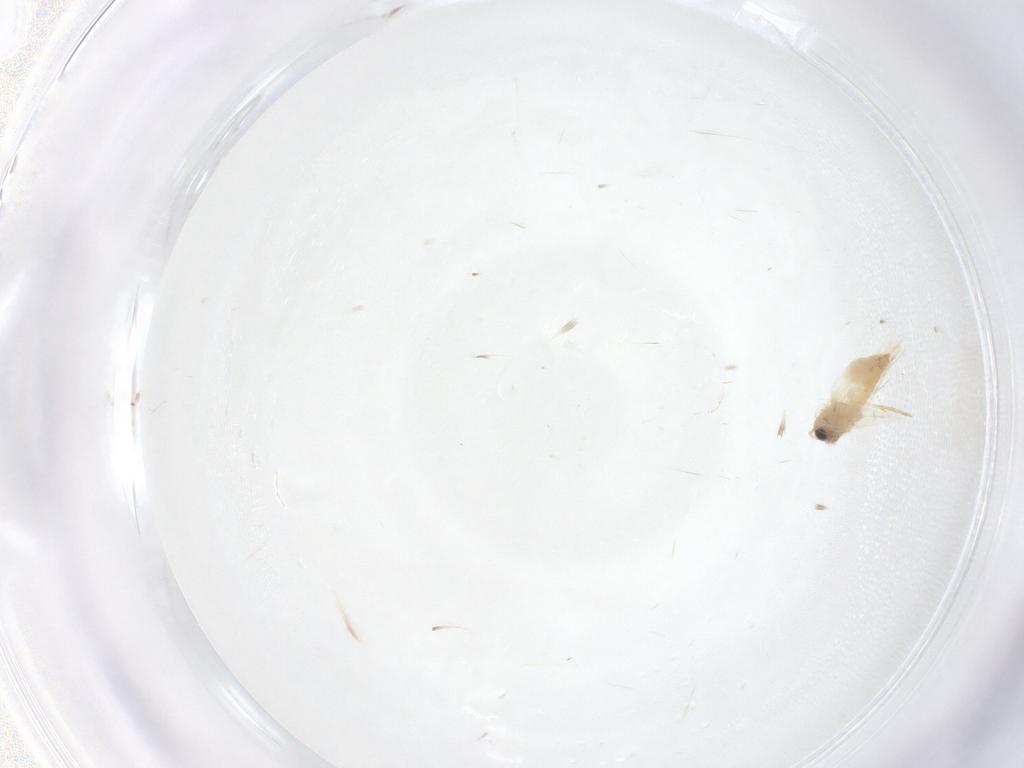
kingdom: Animalia
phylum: Arthropoda
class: Insecta
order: Lepidoptera
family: Crambidae
